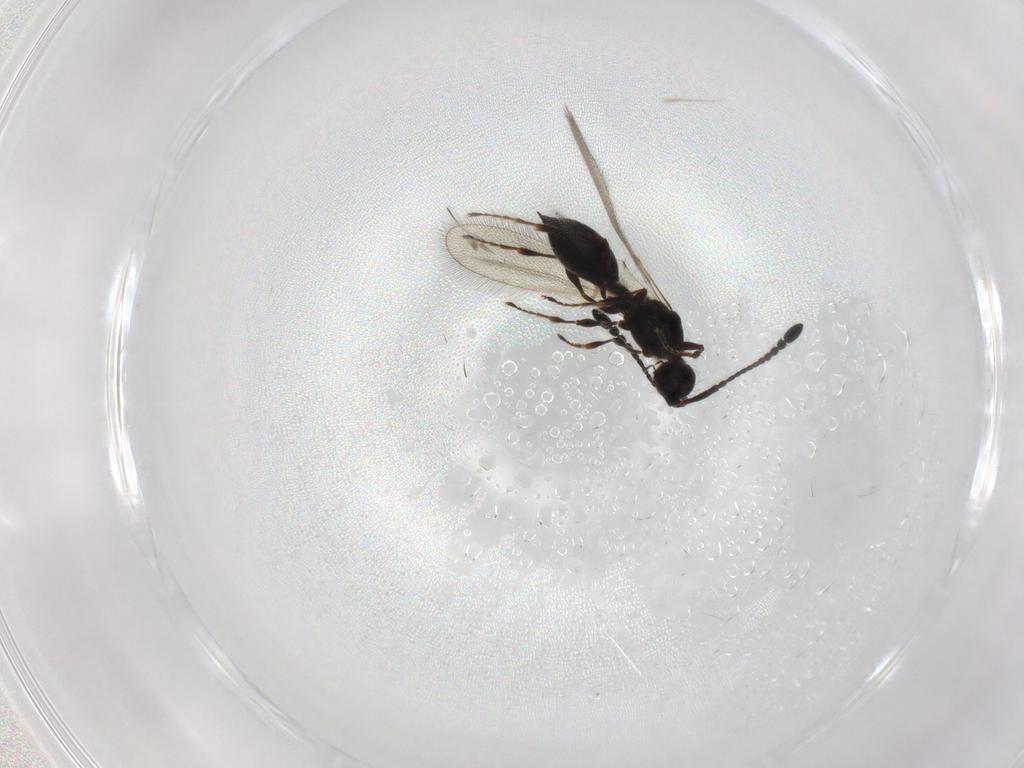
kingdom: Animalia
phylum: Arthropoda
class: Insecta
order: Hymenoptera
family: Diapriidae
